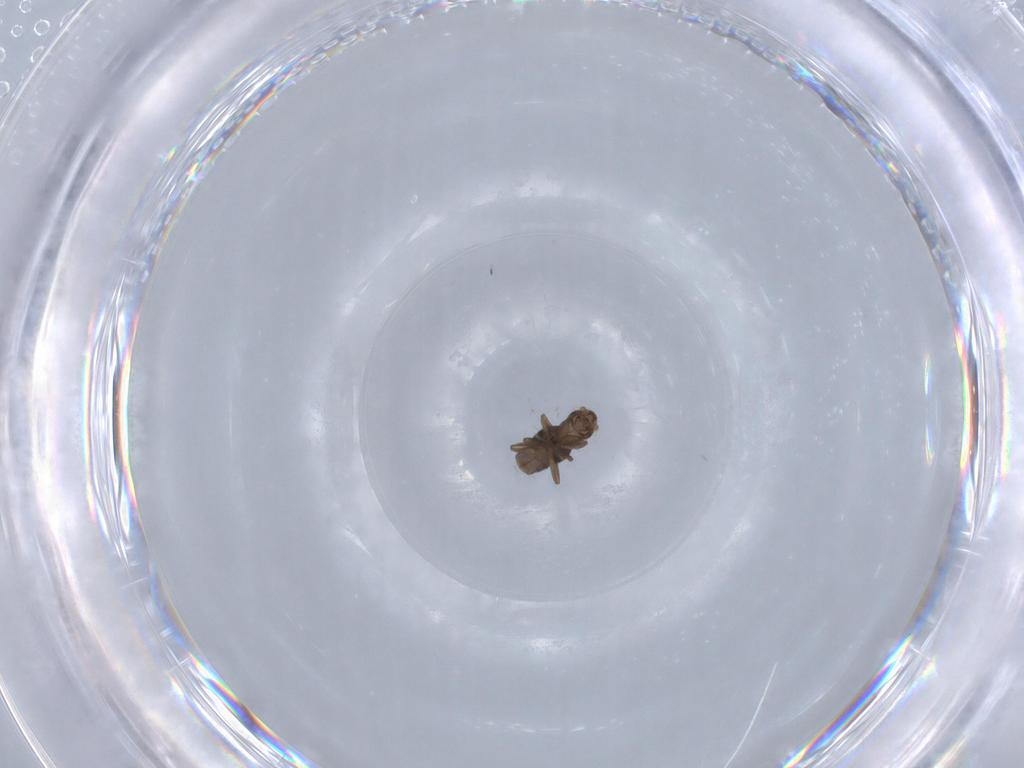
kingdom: Animalia
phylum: Arthropoda
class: Insecta
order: Diptera
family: Phoridae
